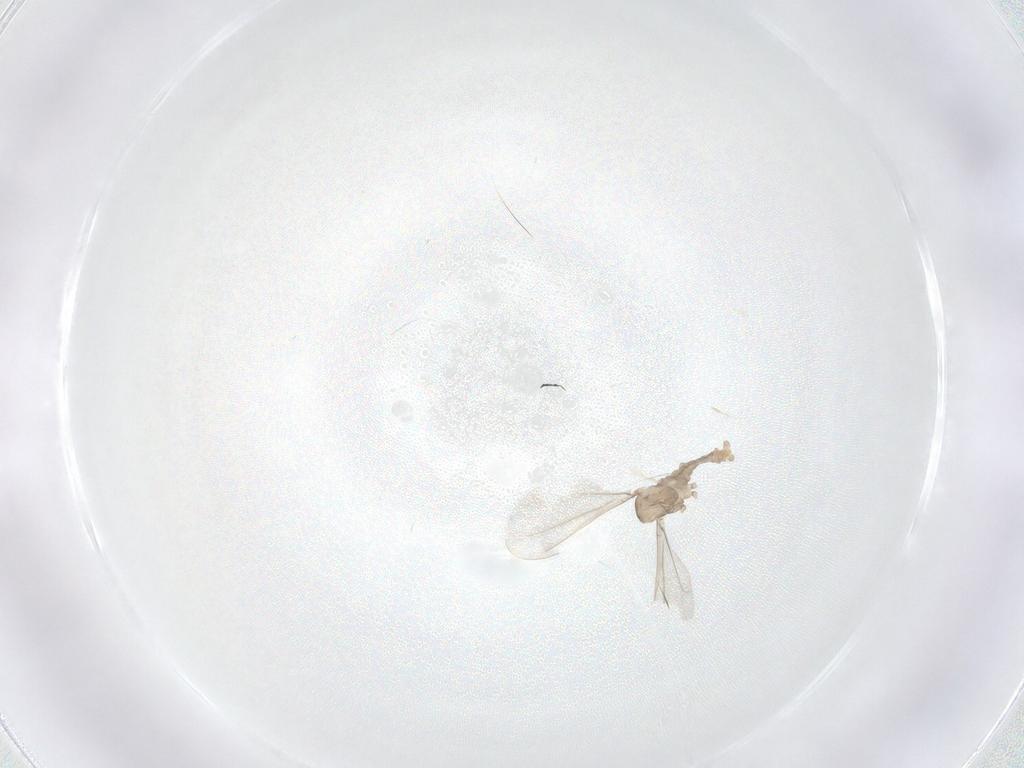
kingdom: Animalia
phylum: Arthropoda
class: Insecta
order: Diptera
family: Cecidomyiidae
